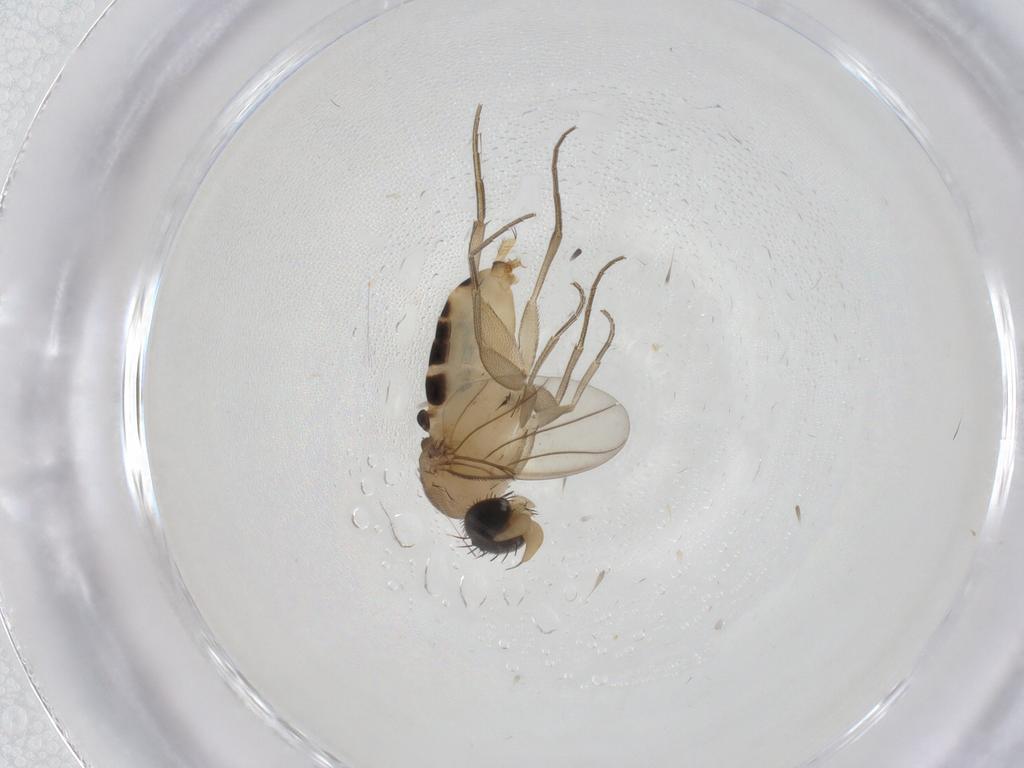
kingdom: Animalia
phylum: Arthropoda
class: Insecta
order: Diptera
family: Phoridae
